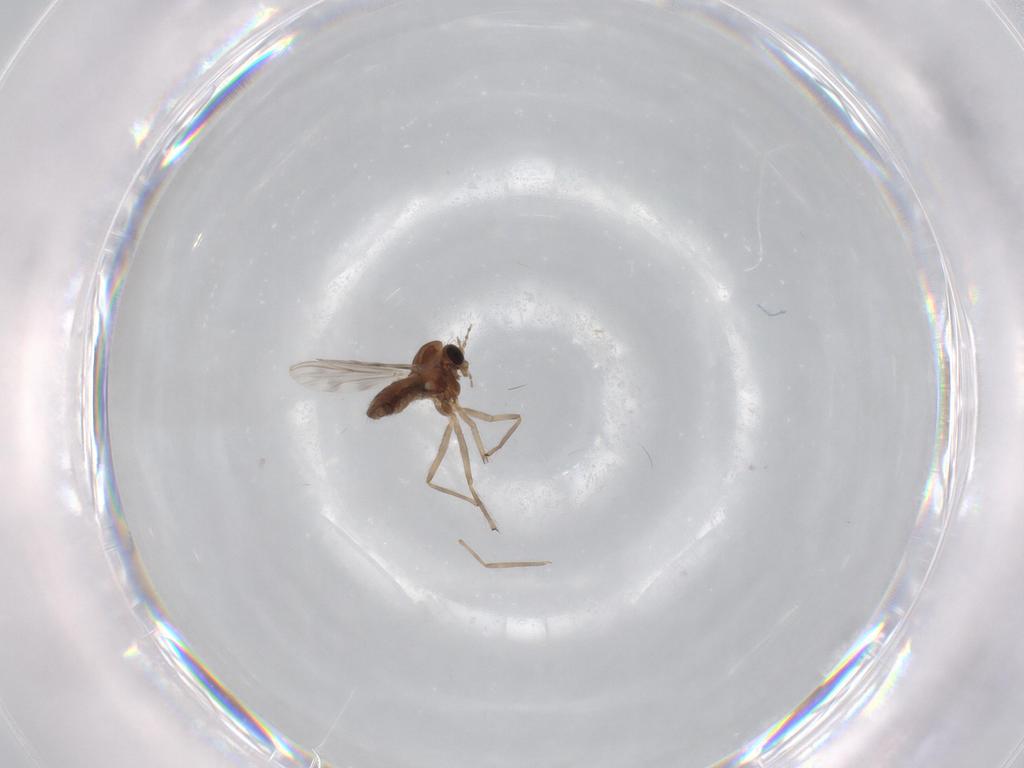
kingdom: Animalia
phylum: Arthropoda
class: Insecta
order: Diptera
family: Chironomidae
